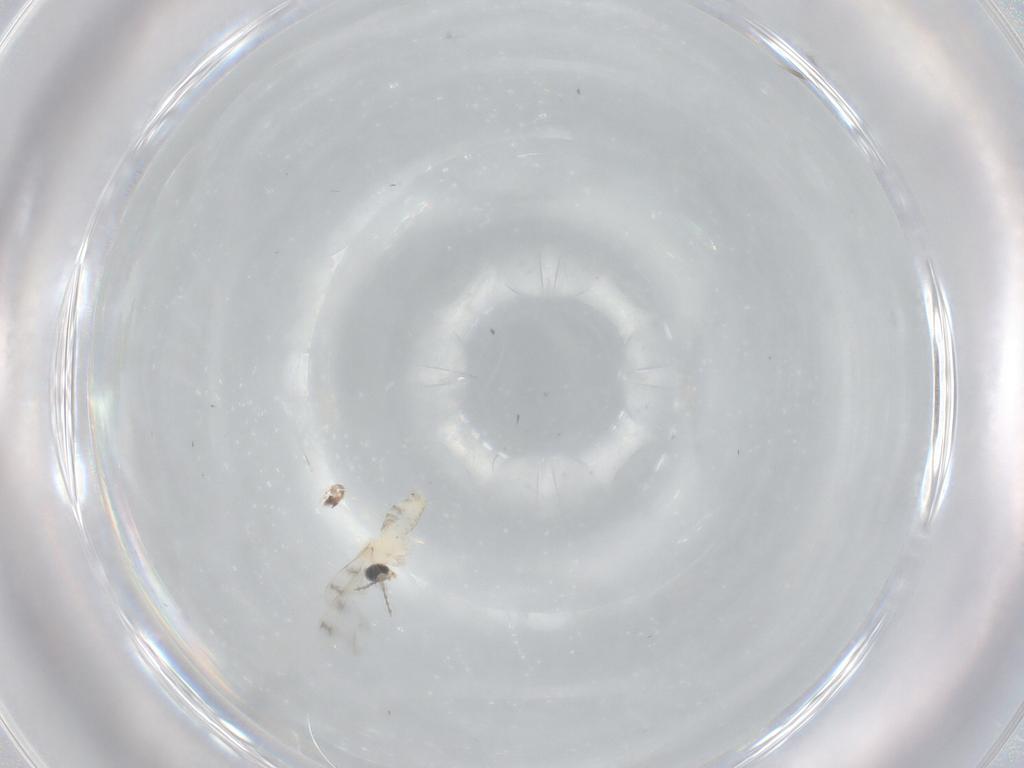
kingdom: Animalia
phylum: Arthropoda
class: Insecta
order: Diptera
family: Cecidomyiidae
